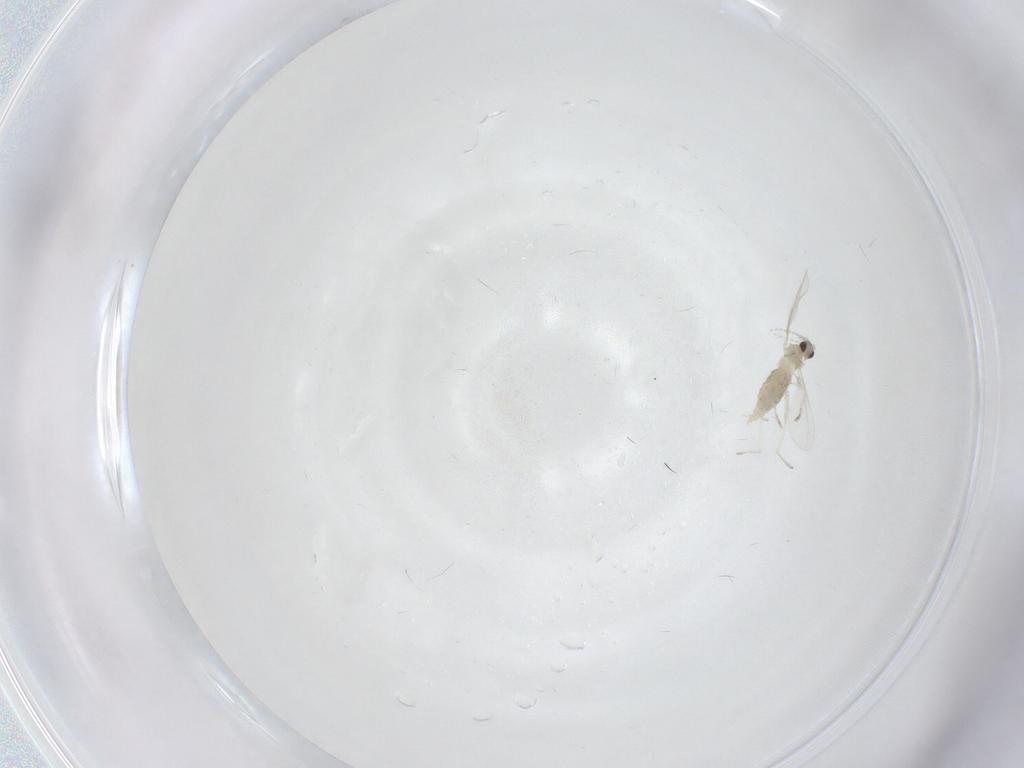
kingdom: Animalia
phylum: Arthropoda
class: Insecta
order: Diptera
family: Cecidomyiidae
